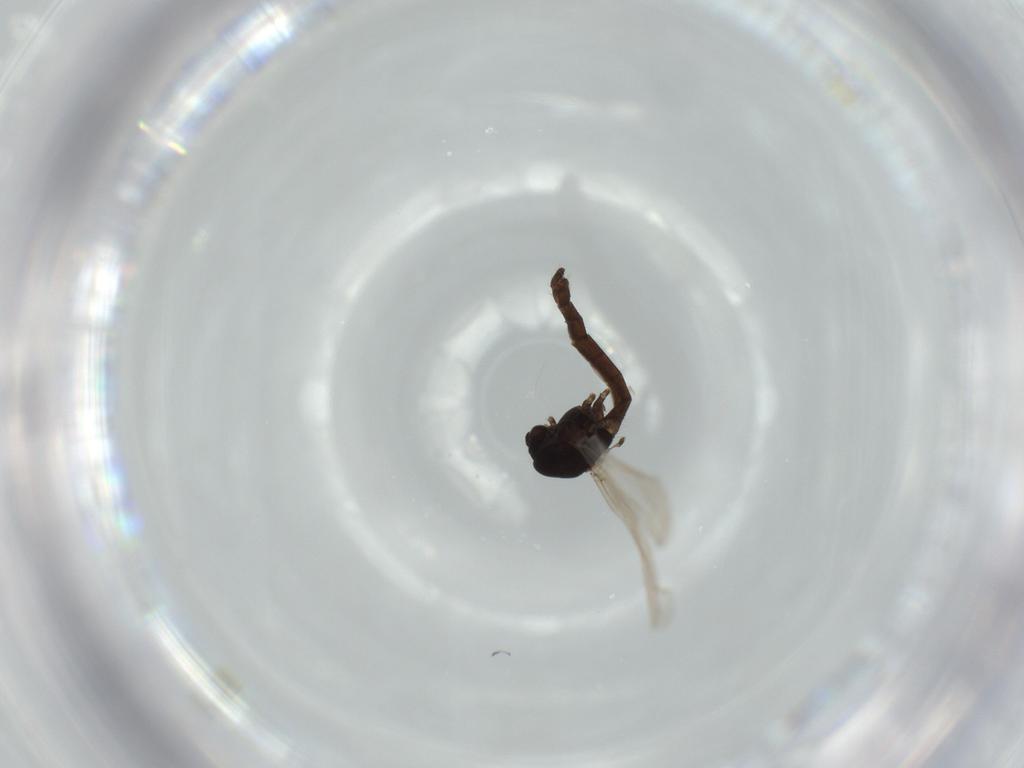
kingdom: Animalia
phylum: Arthropoda
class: Insecta
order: Diptera
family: Chironomidae
